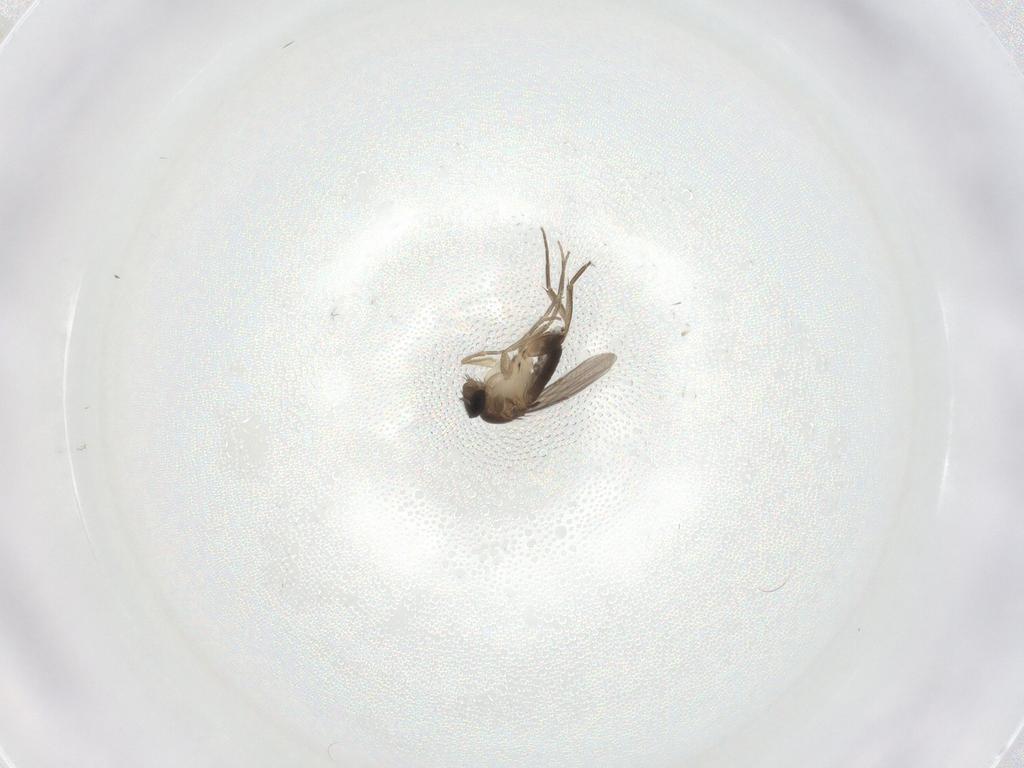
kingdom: Animalia
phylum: Arthropoda
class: Insecta
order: Diptera
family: Phoridae
